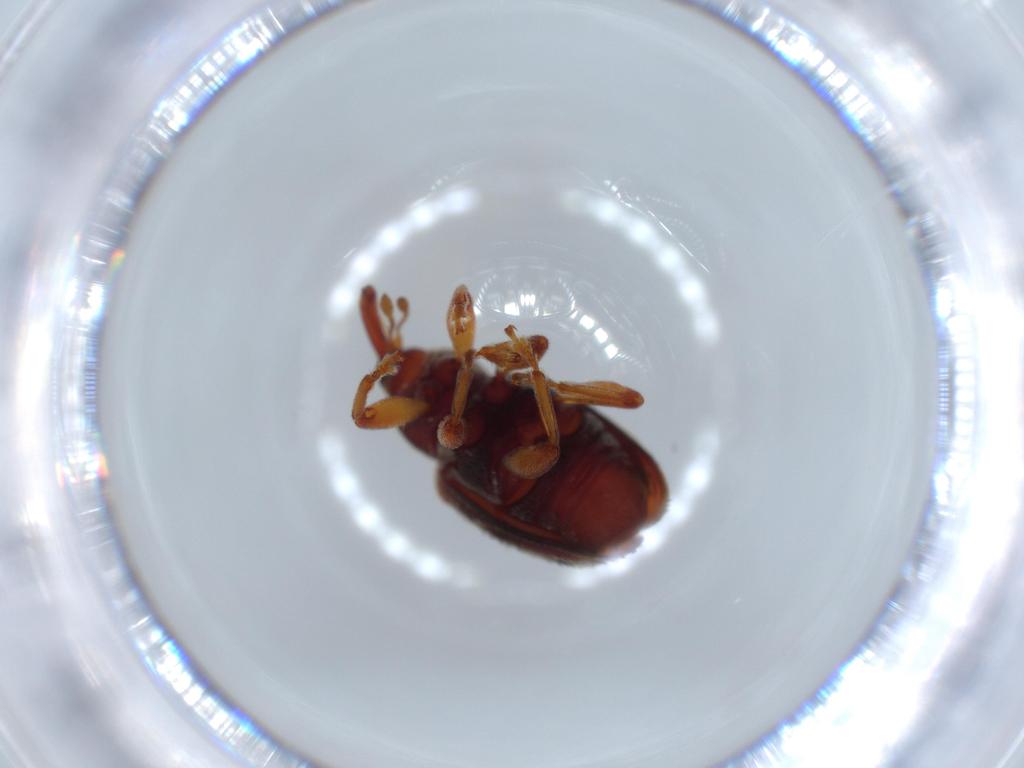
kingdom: Animalia
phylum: Arthropoda
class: Insecta
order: Coleoptera
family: Curculionidae
